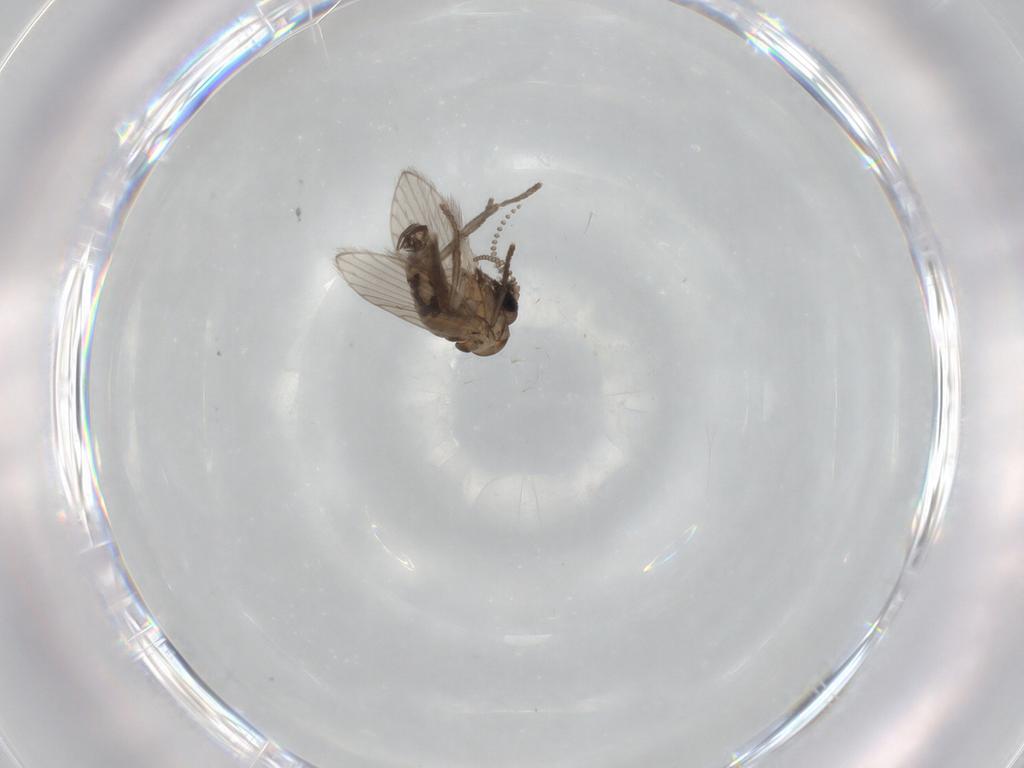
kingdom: Animalia
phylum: Arthropoda
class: Insecta
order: Diptera
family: Psychodidae
